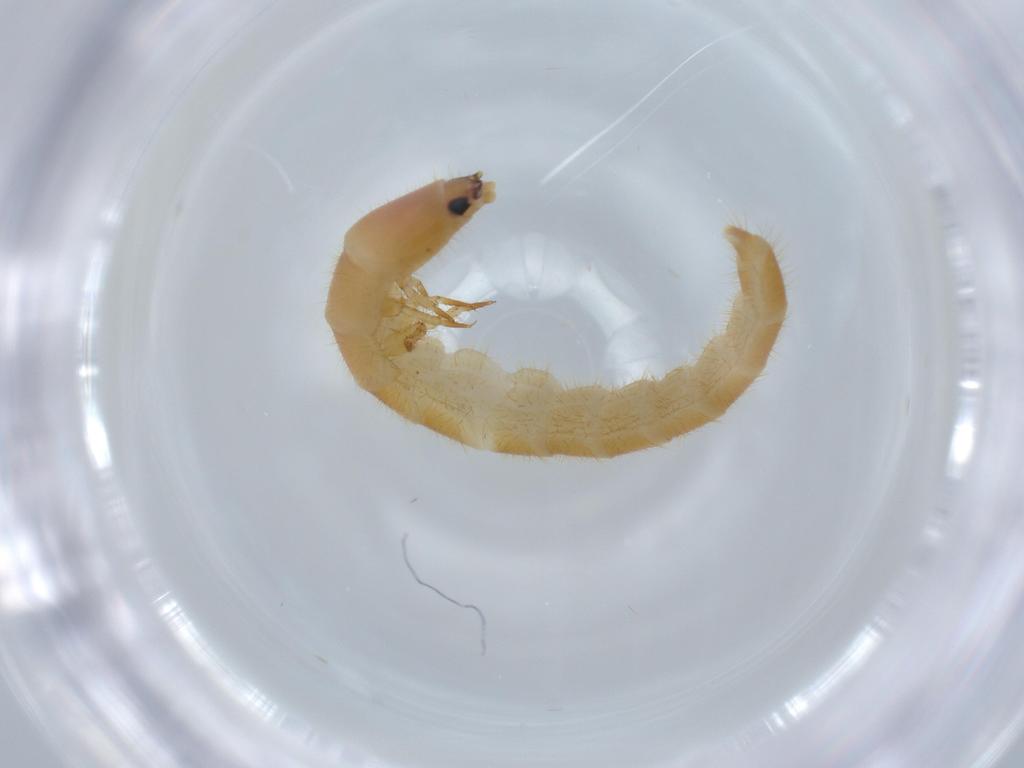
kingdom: Animalia
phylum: Arthropoda
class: Insecta
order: Coleoptera
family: Phengodidae
